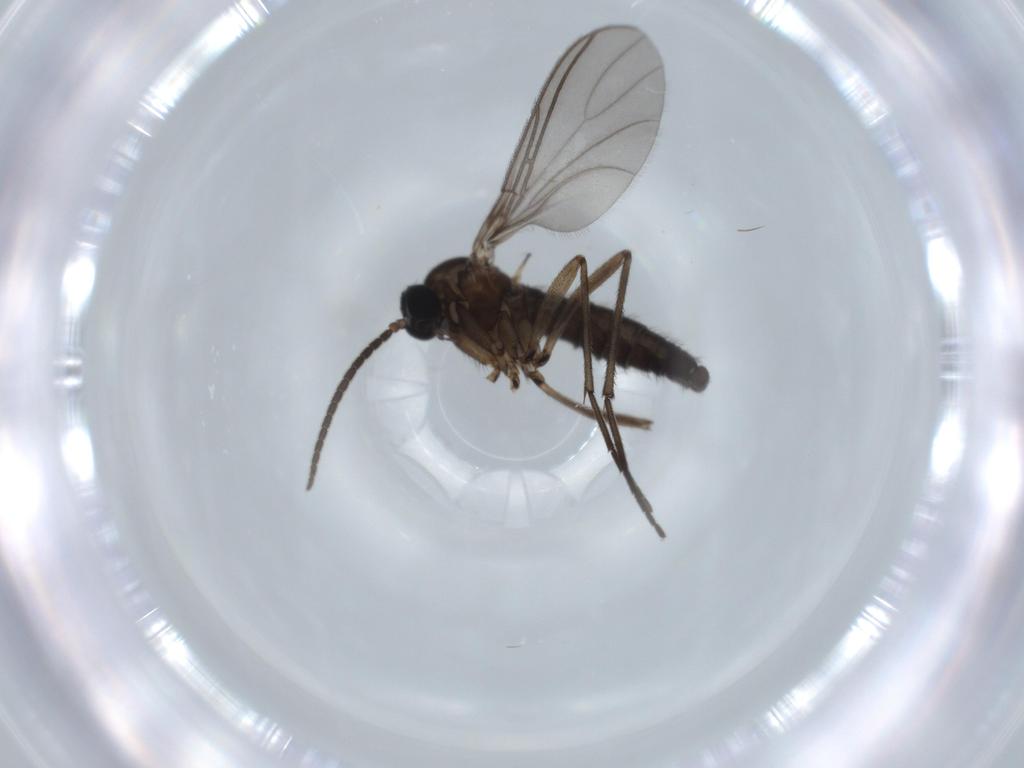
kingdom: Animalia
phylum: Arthropoda
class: Insecta
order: Diptera
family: Sciaridae
